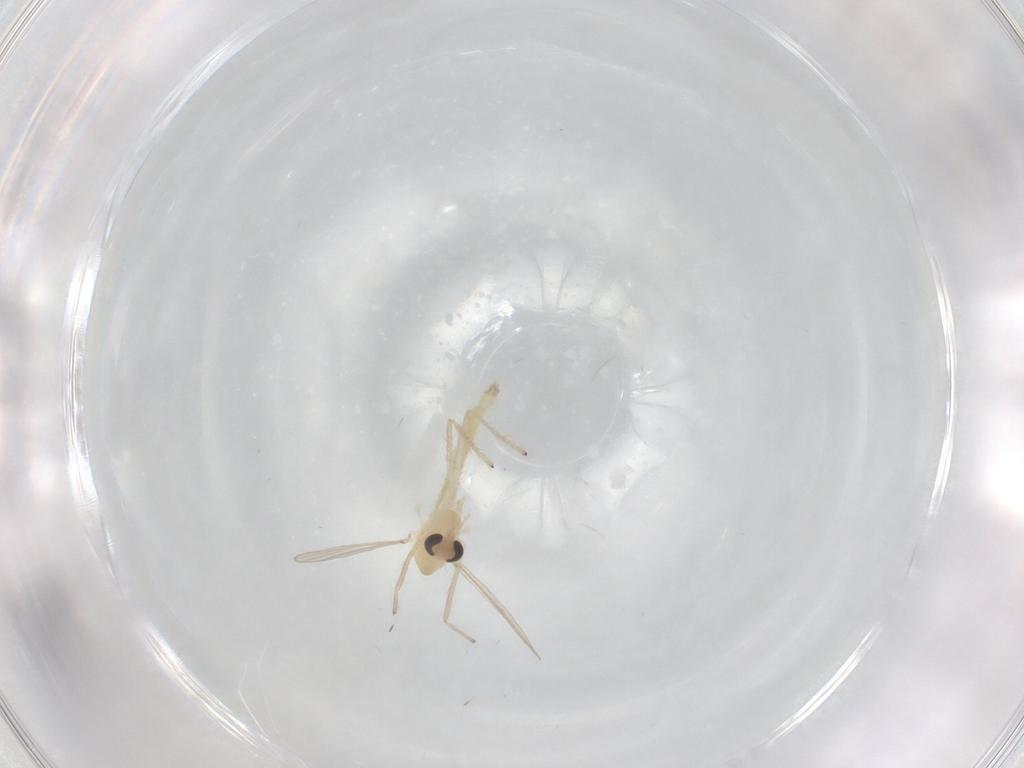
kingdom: Animalia
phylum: Arthropoda
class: Insecta
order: Diptera
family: Chironomidae
